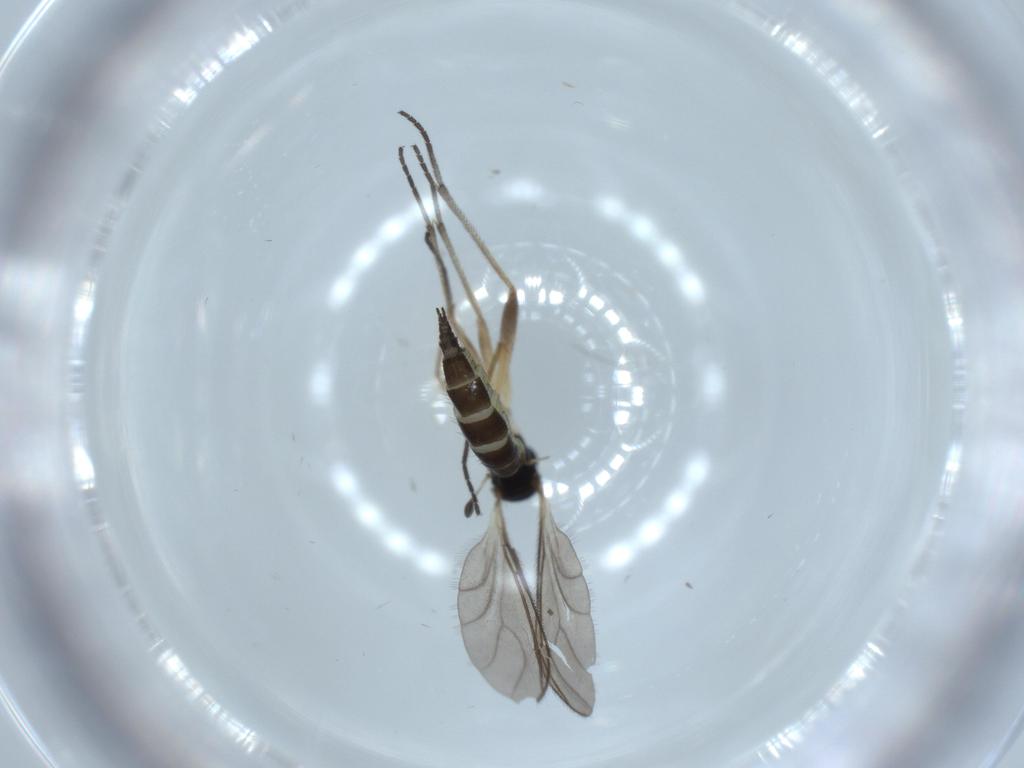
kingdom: Animalia
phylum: Arthropoda
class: Insecta
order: Diptera
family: Sciaridae
